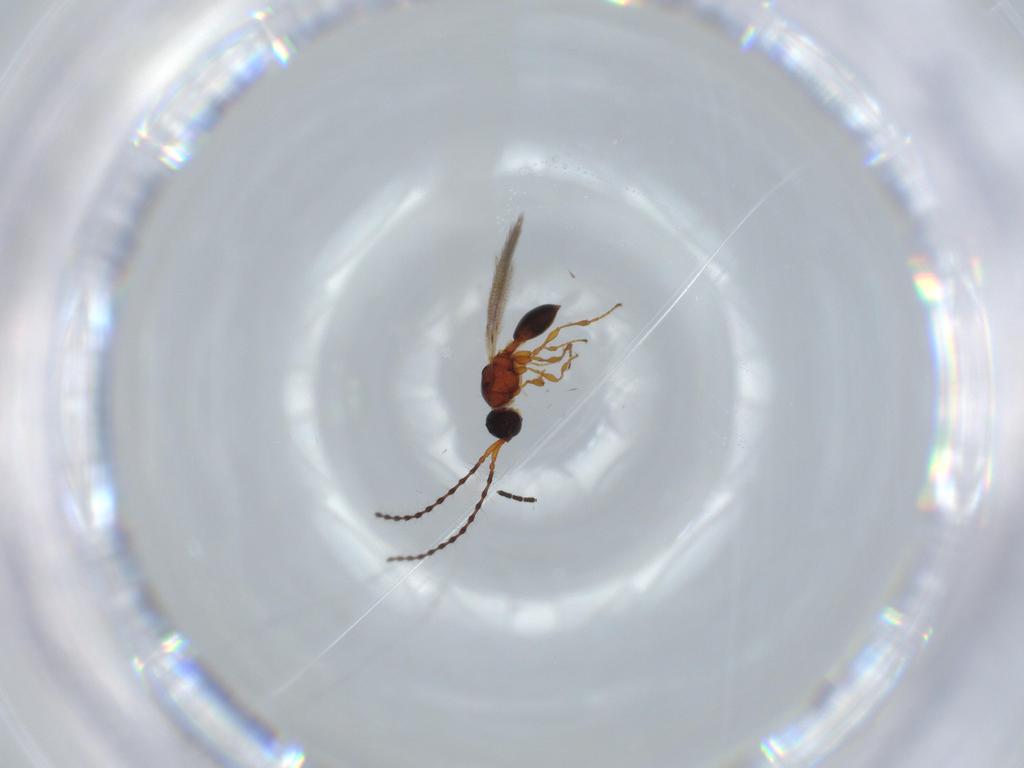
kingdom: Animalia
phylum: Arthropoda
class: Insecta
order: Hymenoptera
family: Diapriidae
